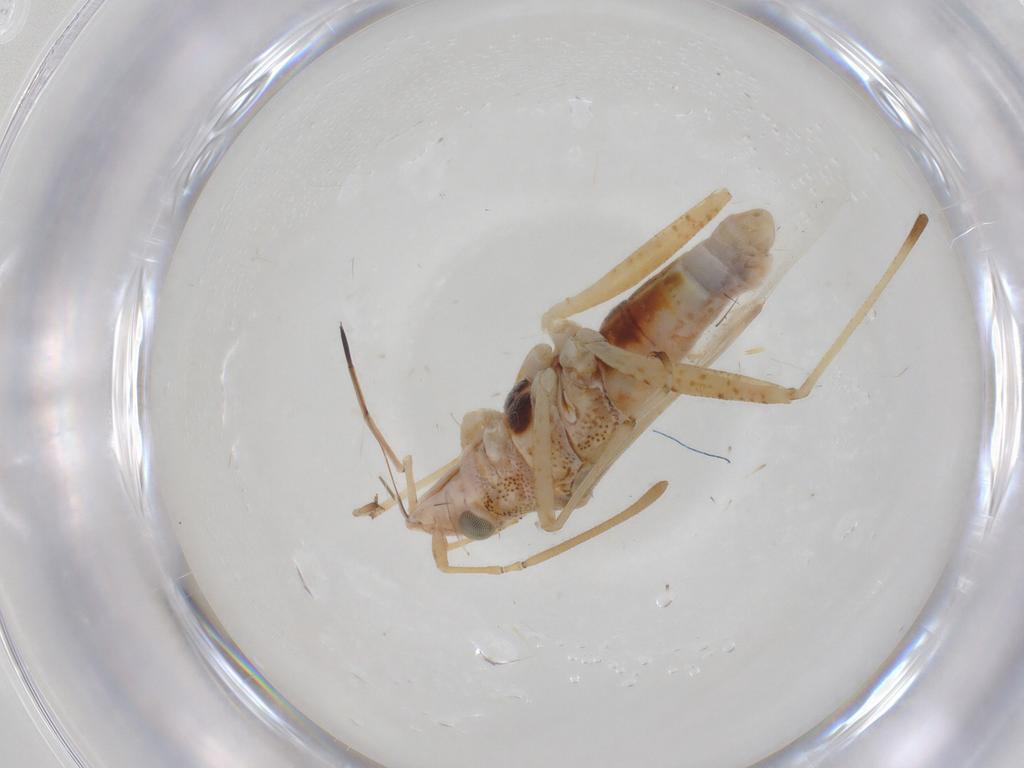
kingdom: Animalia
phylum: Arthropoda
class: Insecta
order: Hemiptera
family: Lygaeidae
